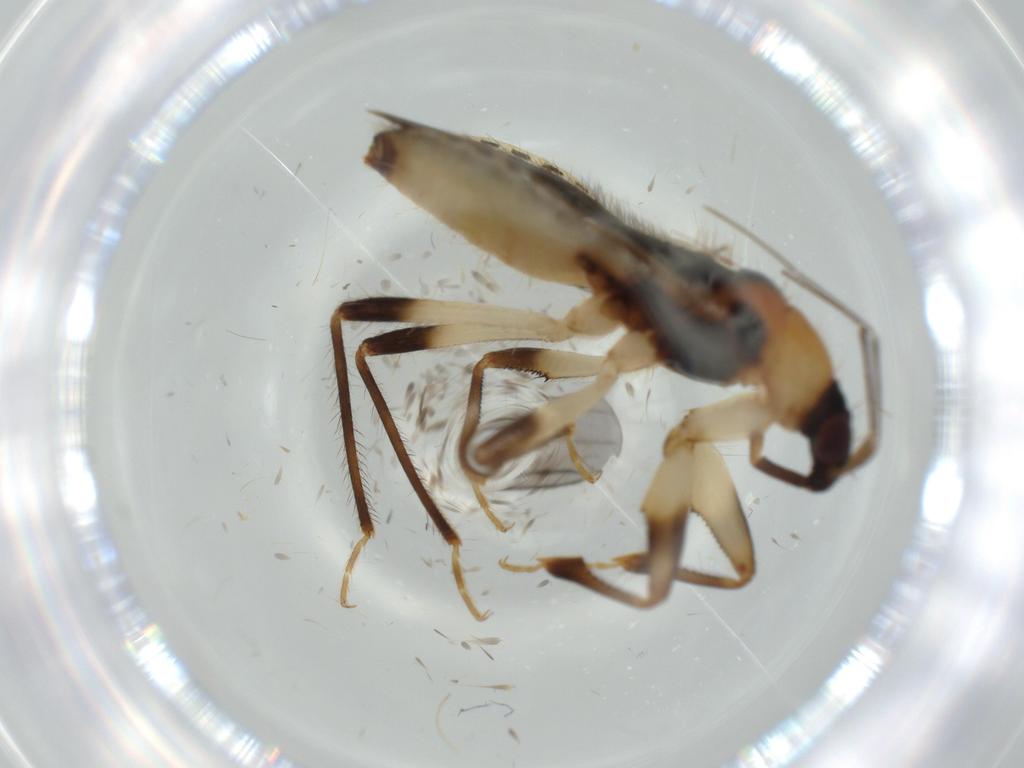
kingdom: Animalia
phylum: Arthropoda
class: Insecta
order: Hemiptera
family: Nabidae
